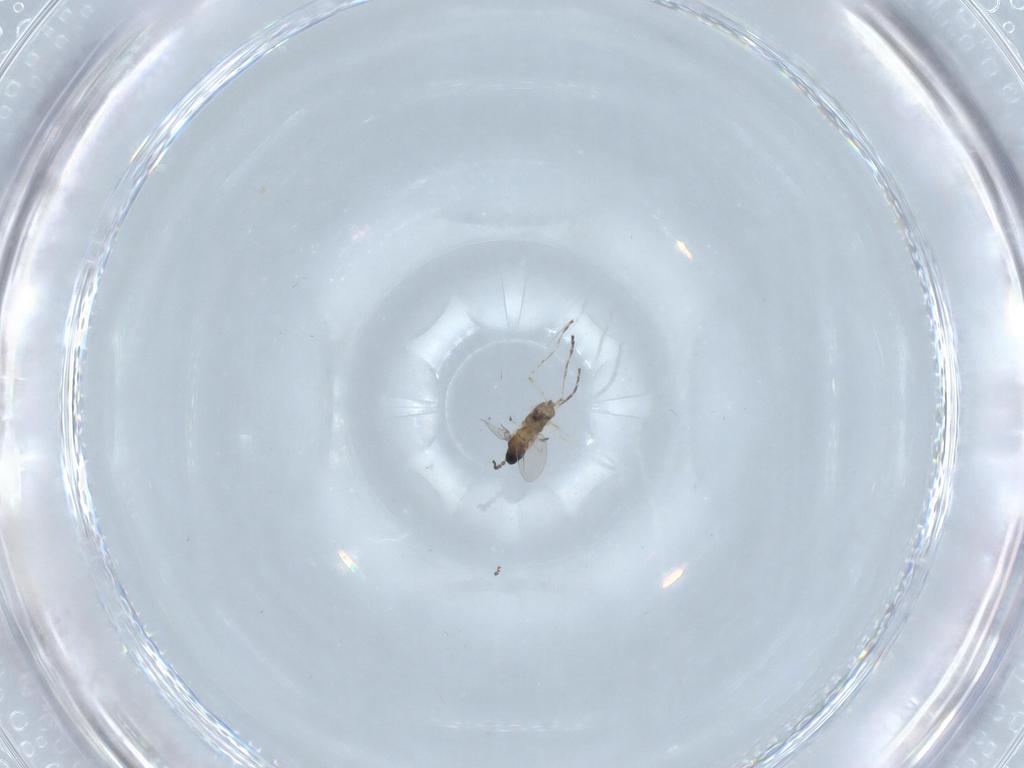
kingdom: Animalia
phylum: Arthropoda
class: Insecta
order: Diptera
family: Cecidomyiidae
